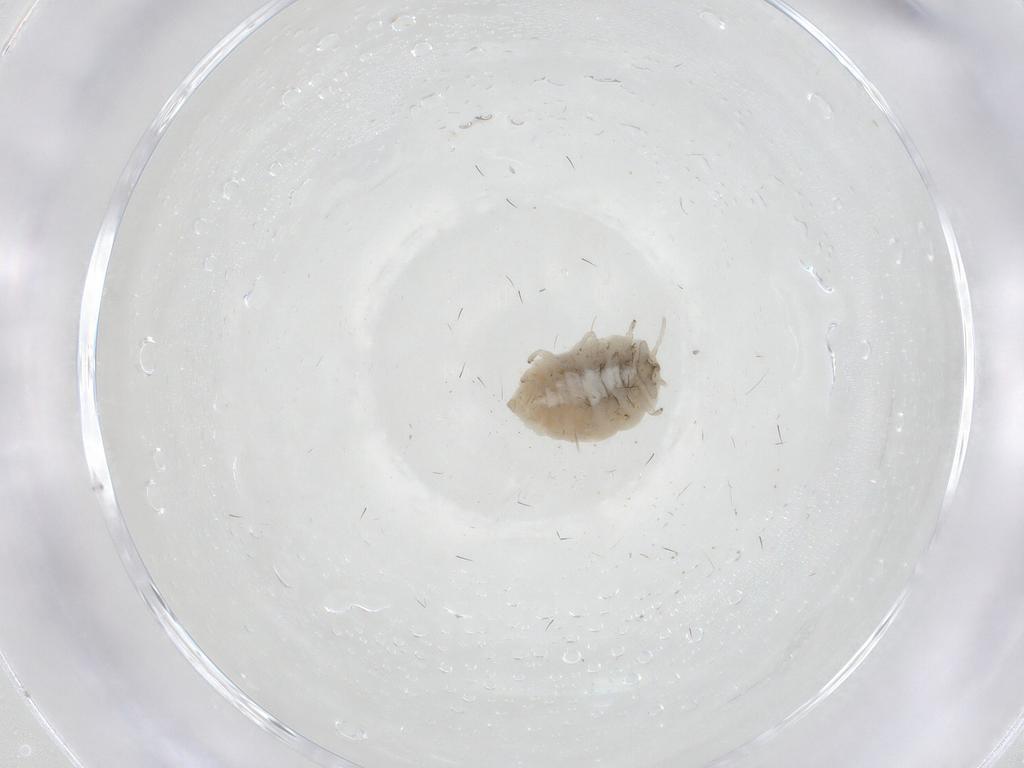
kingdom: Animalia
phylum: Arthropoda
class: Insecta
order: Neuroptera
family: Coniopterygidae
